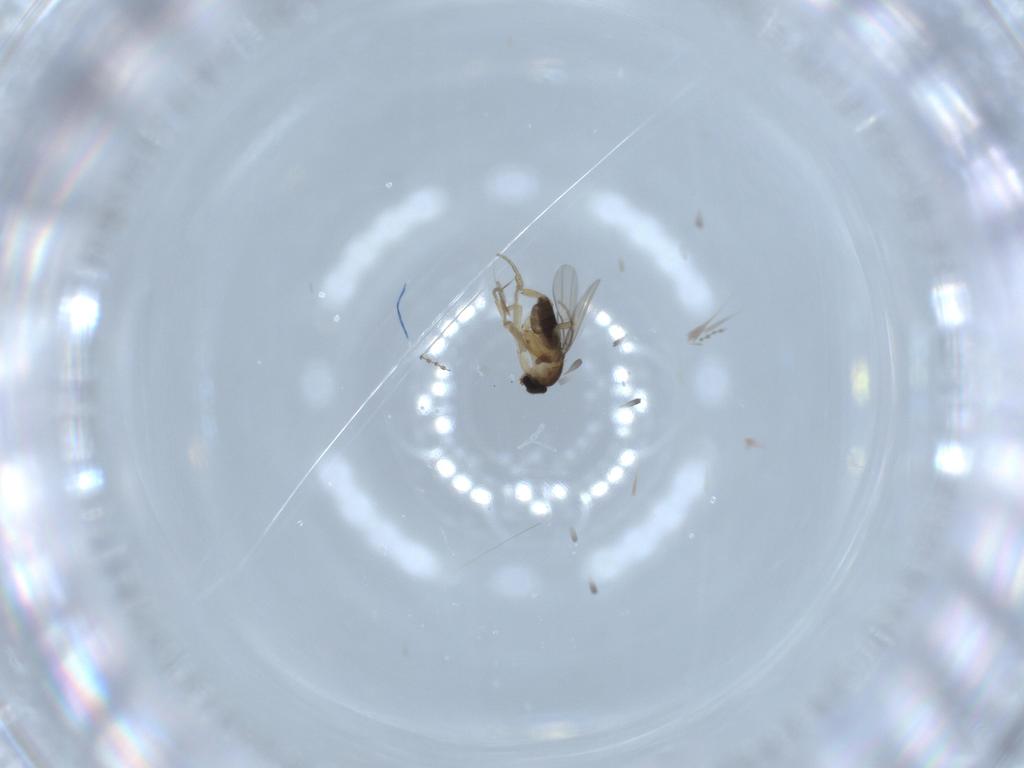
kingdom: Animalia
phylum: Arthropoda
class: Insecta
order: Diptera
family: Phoridae
